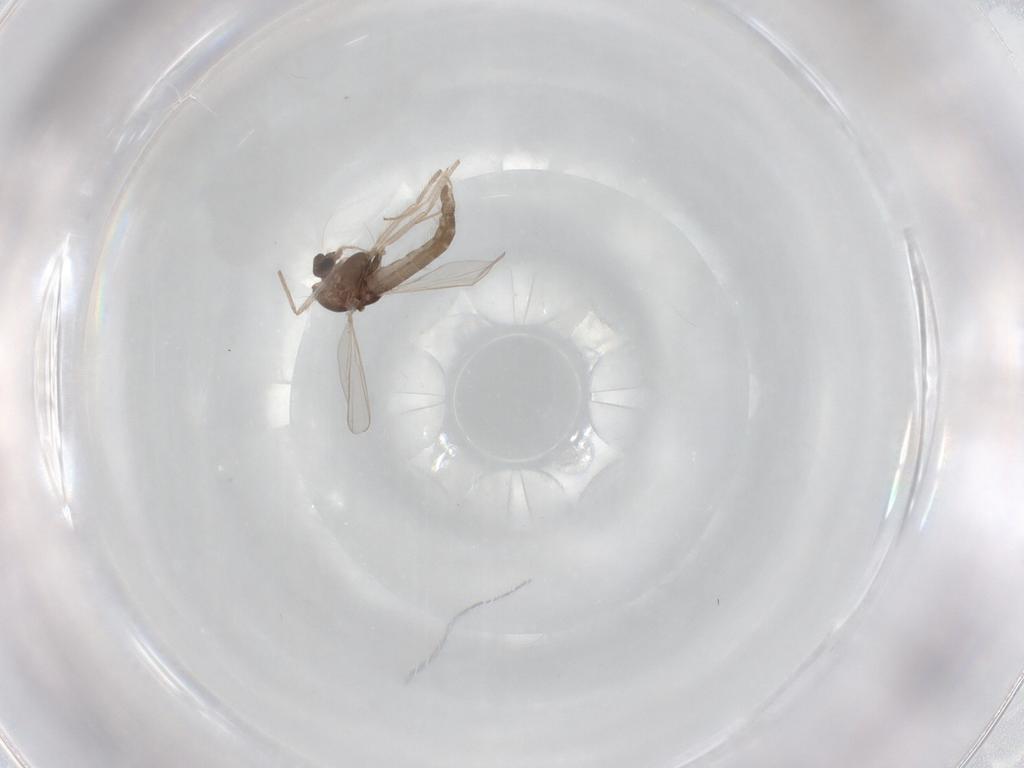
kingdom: Animalia
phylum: Arthropoda
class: Insecta
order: Diptera
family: Chironomidae
